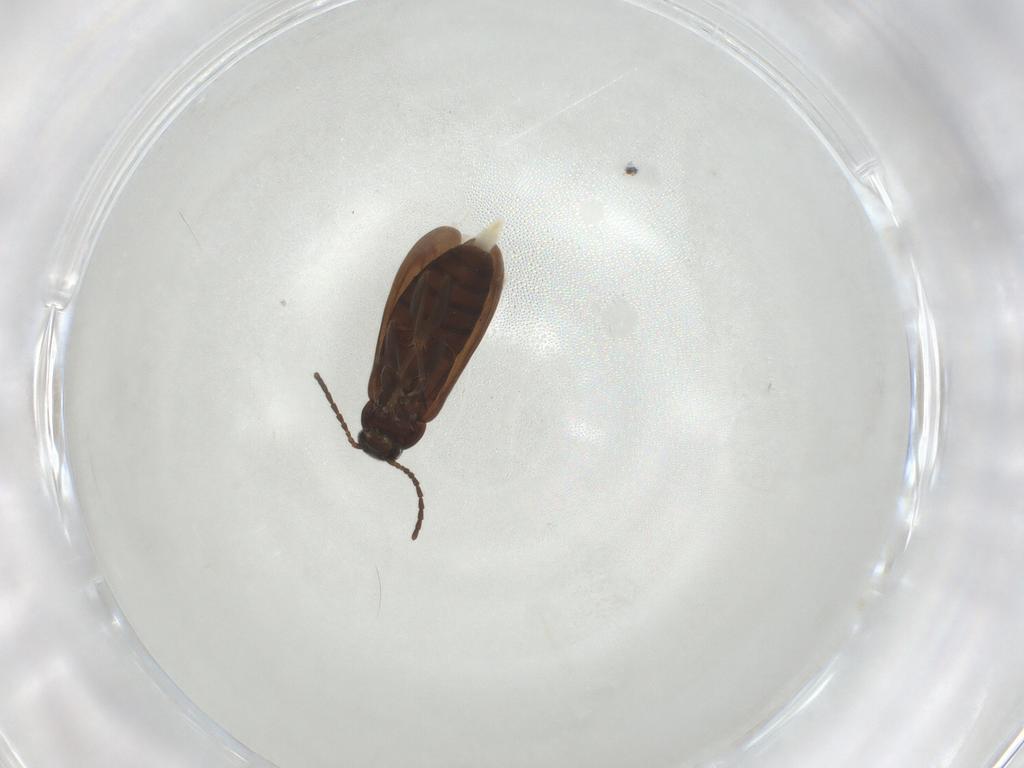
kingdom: Animalia
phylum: Arthropoda
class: Insecta
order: Coleoptera
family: Scraptiidae
